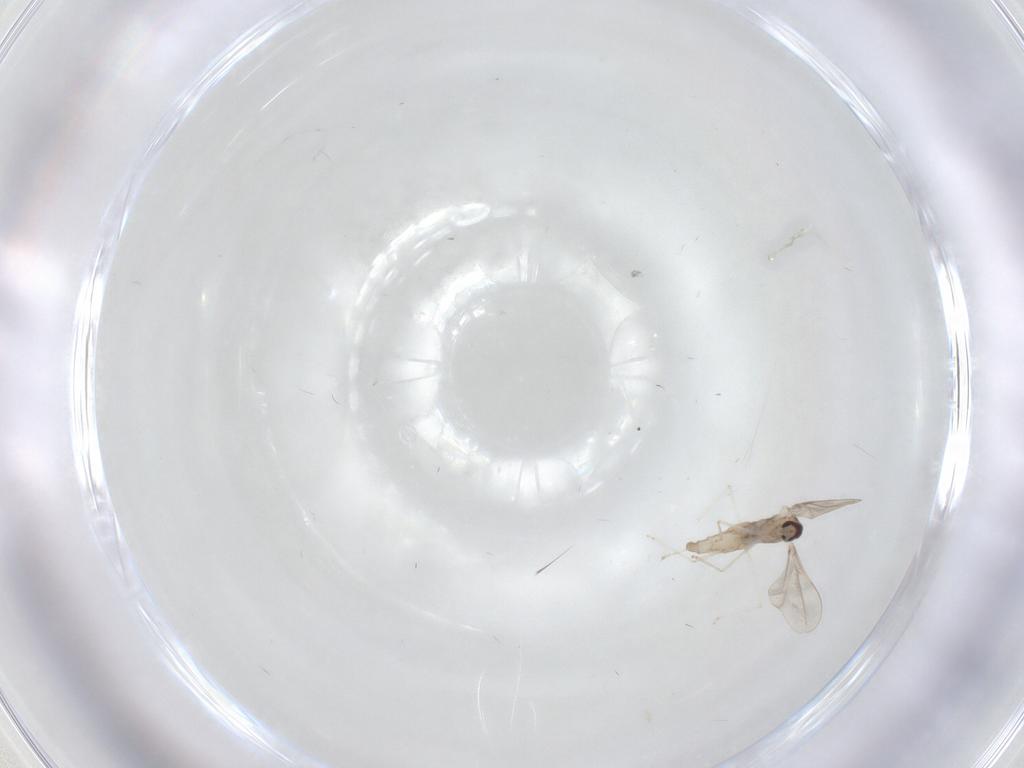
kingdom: Animalia
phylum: Arthropoda
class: Insecta
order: Diptera
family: Cecidomyiidae
